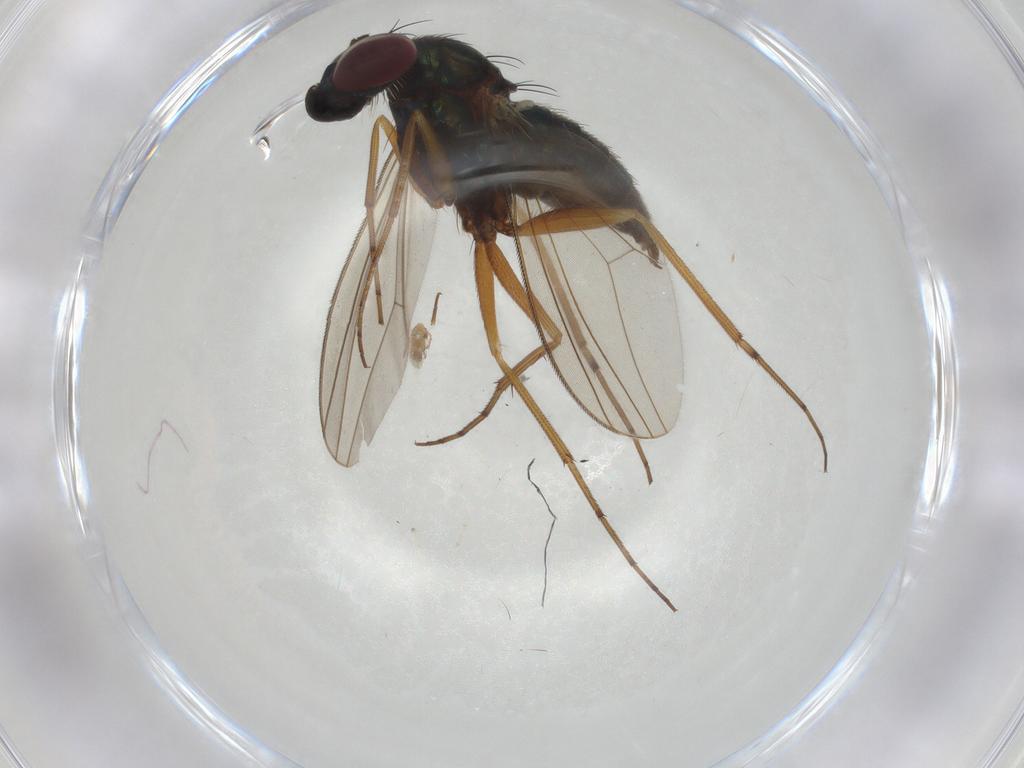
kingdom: Animalia
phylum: Arthropoda
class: Insecta
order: Diptera
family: Dolichopodidae
